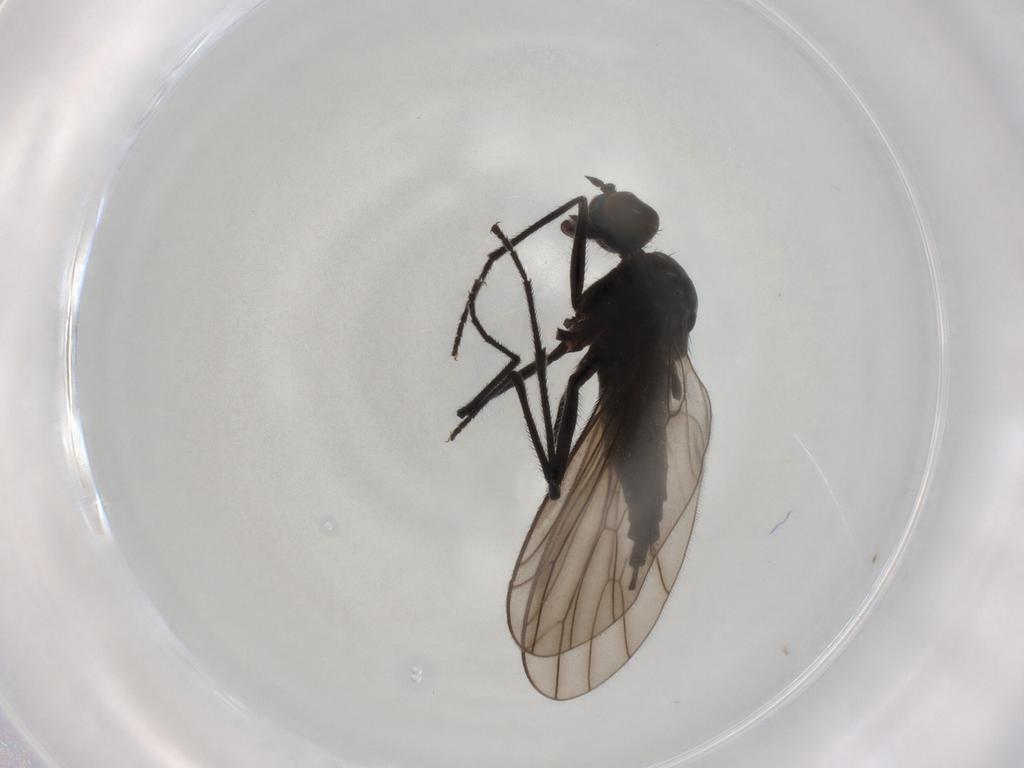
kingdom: Animalia
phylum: Arthropoda
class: Insecta
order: Diptera
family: Empididae
